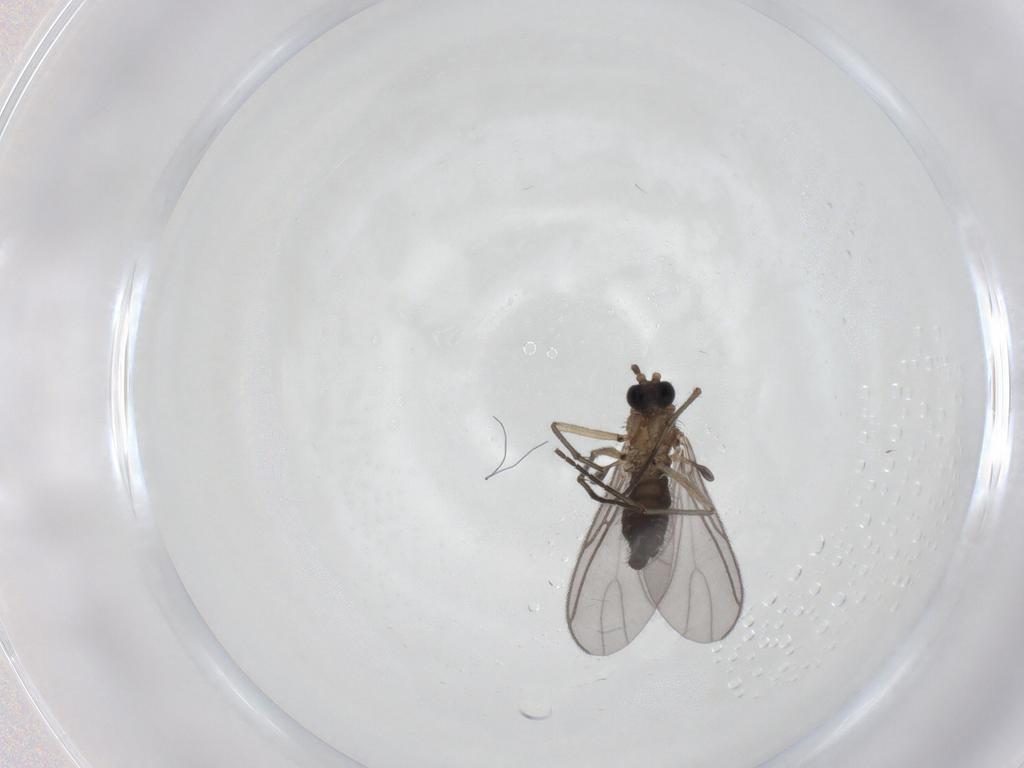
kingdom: Animalia
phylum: Arthropoda
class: Insecta
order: Diptera
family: Sciaridae
